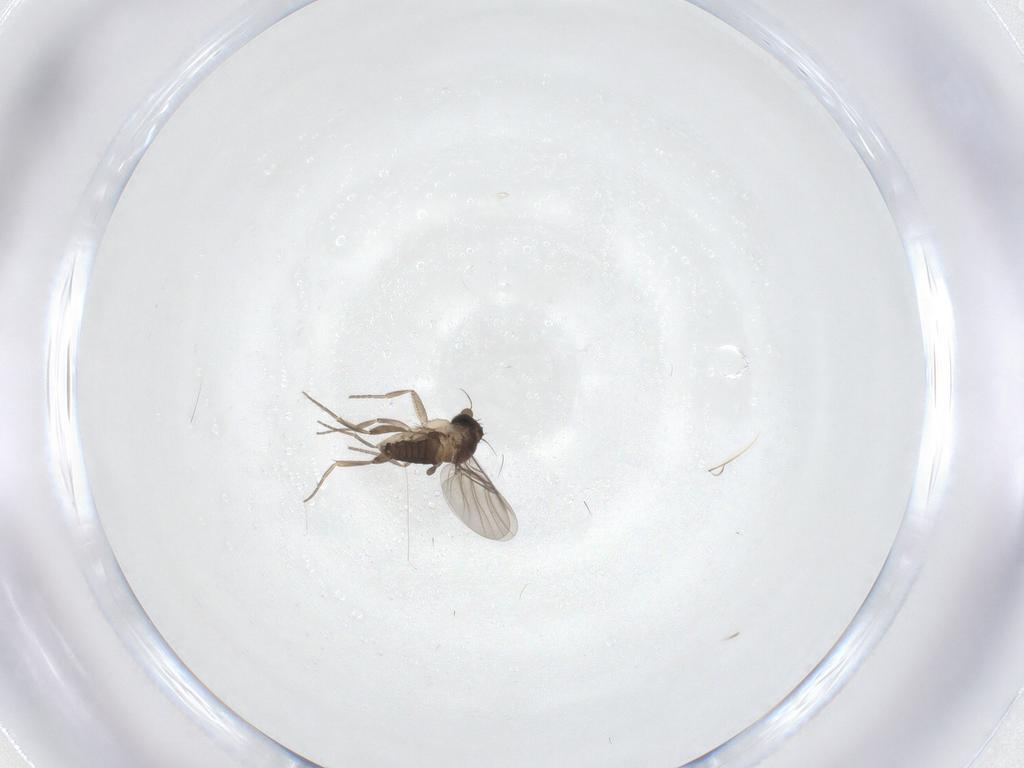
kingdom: Animalia
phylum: Arthropoda
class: Insecta
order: Diptera
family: Phoridae
